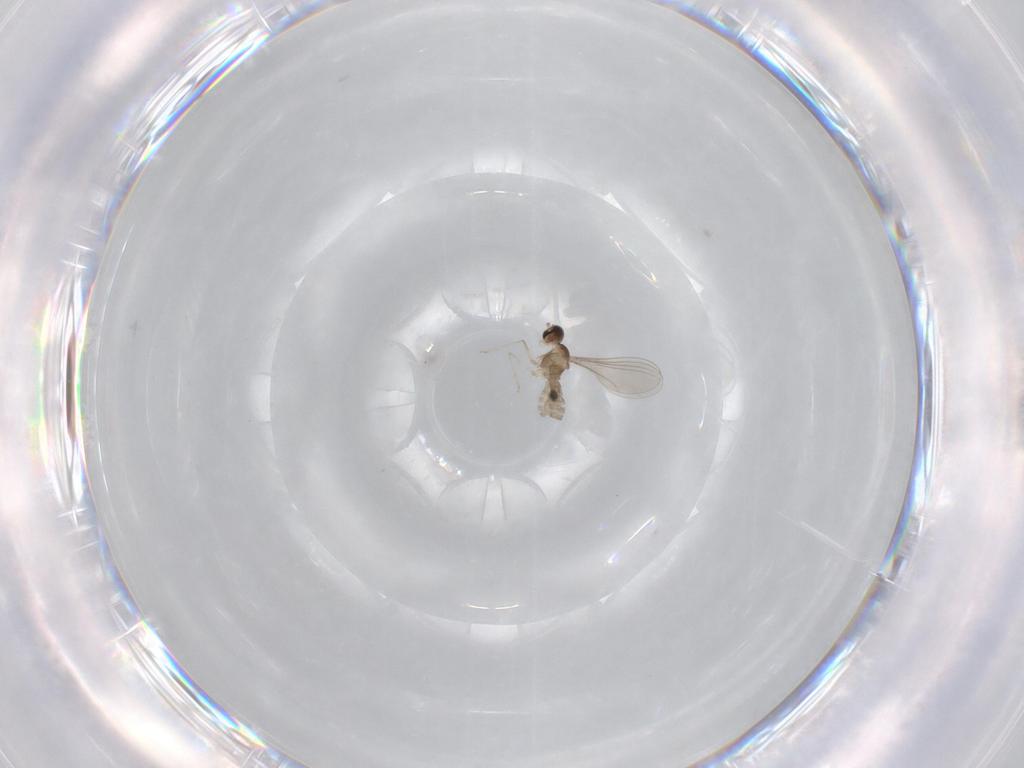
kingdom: Animalia
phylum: Arthropoda
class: Insecta
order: Diptera
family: Cecidomyiidae
